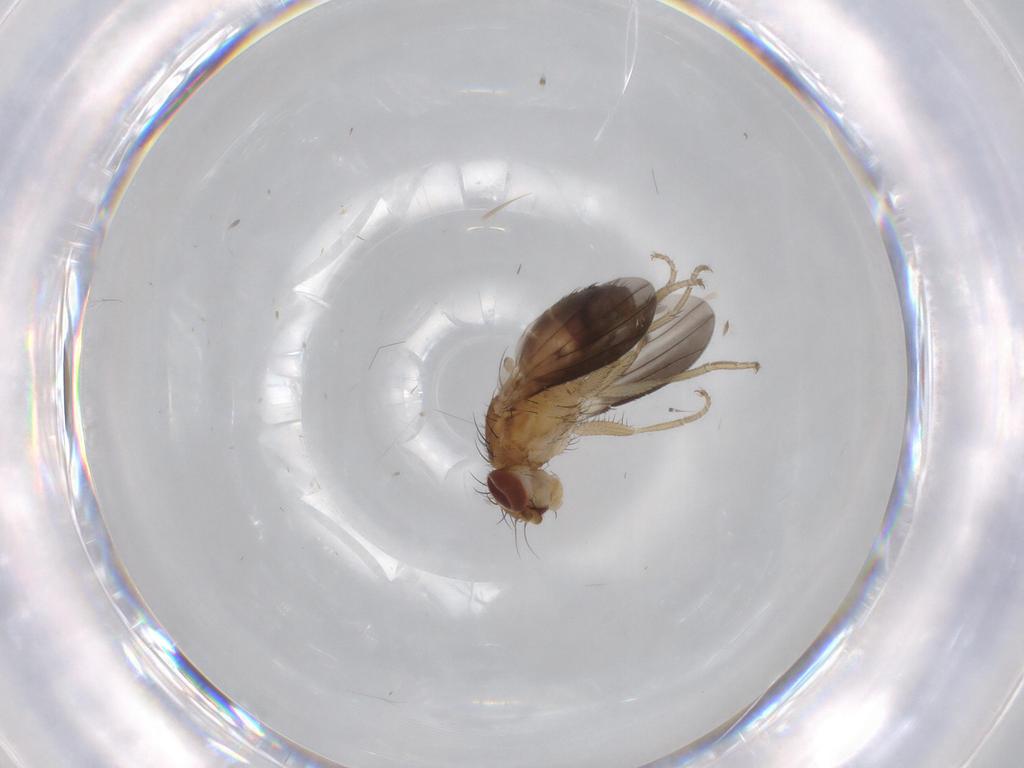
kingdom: Animalia
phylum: Arthropoda
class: Insecta
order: Diptera
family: Heleomyzidae
